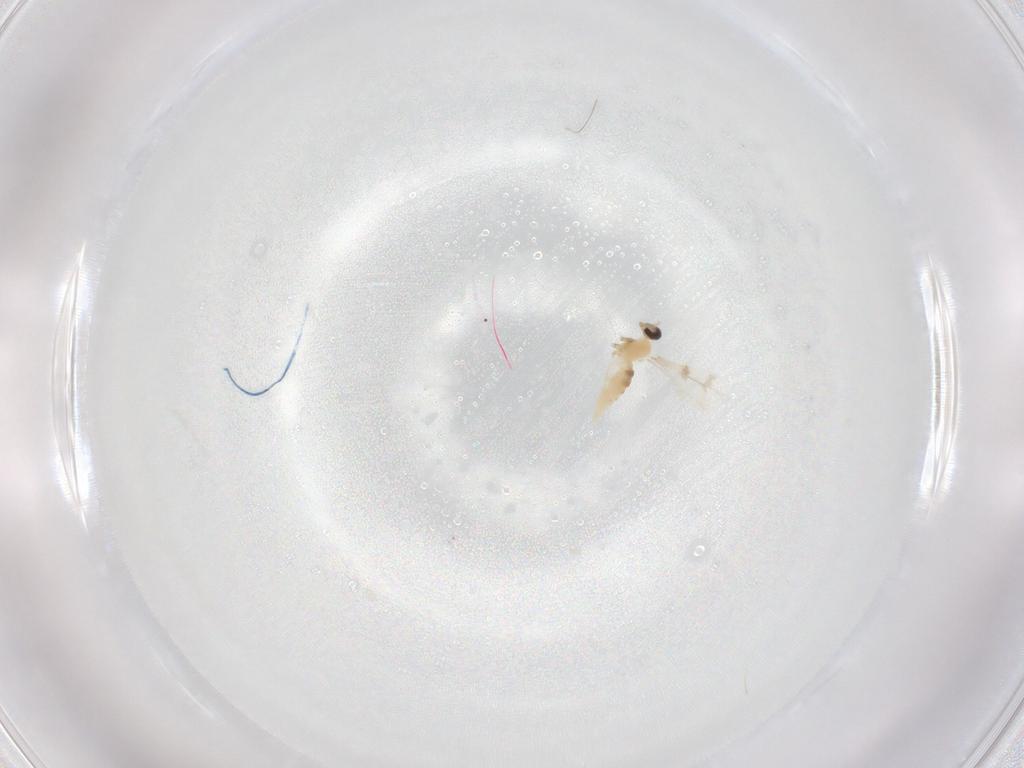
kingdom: Animalia
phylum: Arthropoda
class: Insecta
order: Diptera
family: Cecidomyiidae
